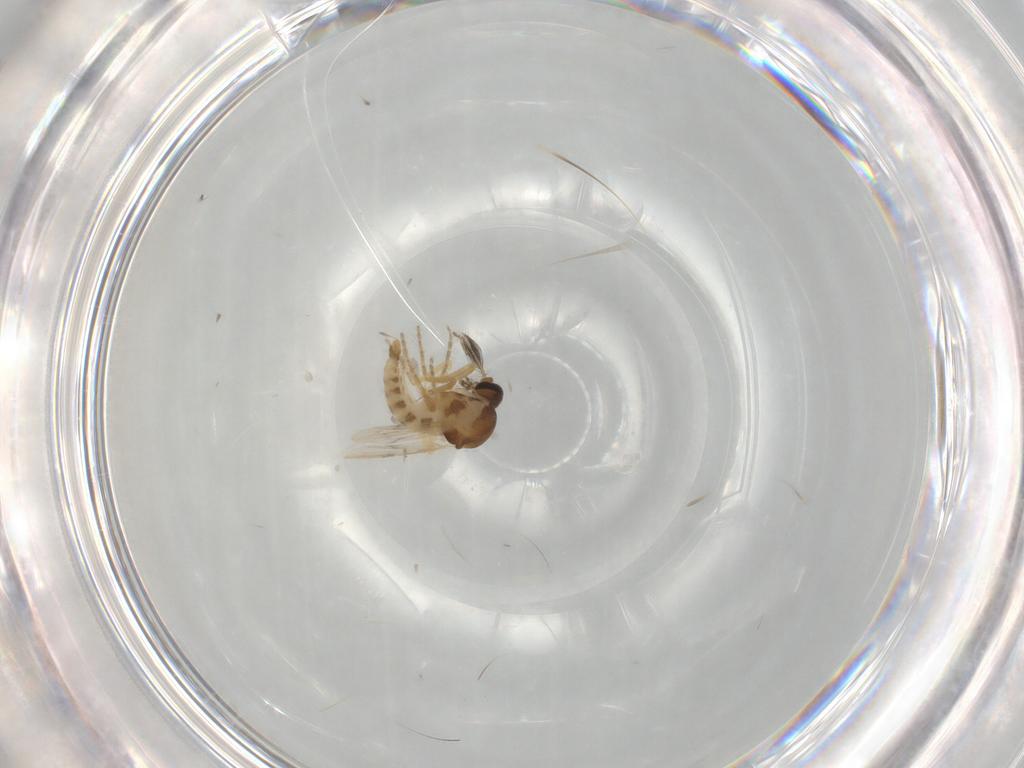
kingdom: Animalia
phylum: Arthropoda
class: Insecta
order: Diptera
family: Ceratopogonidae
